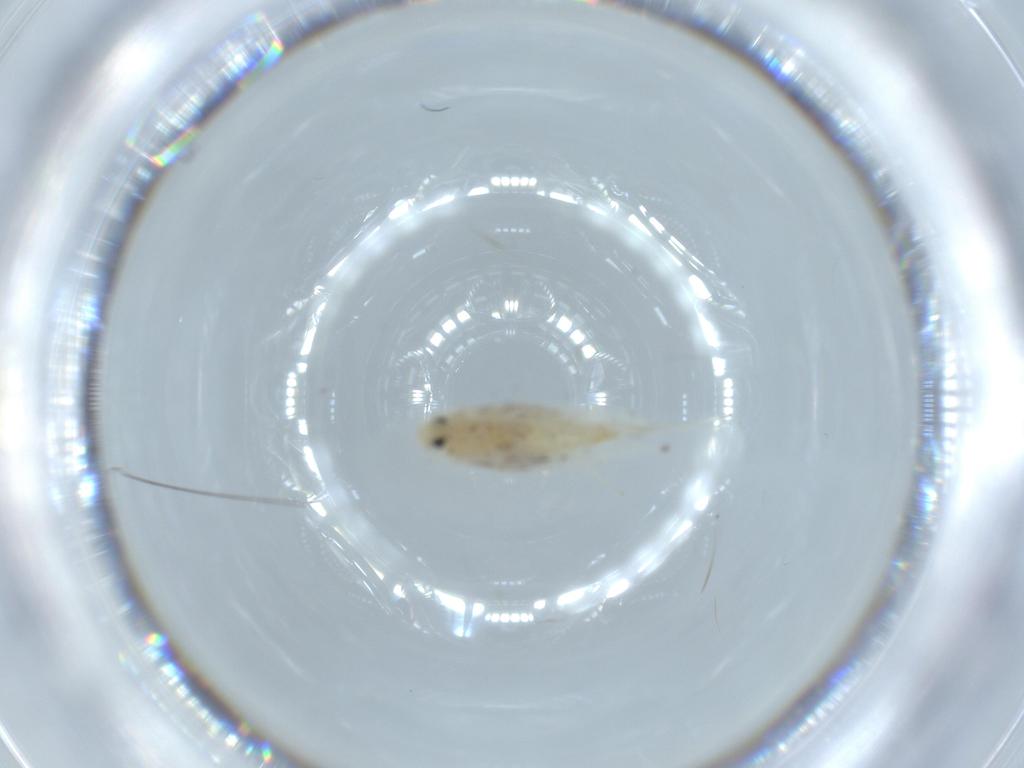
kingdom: Animalia
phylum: Arthropoda
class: Insecta
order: Lepidoptera
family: Gracillariidae
